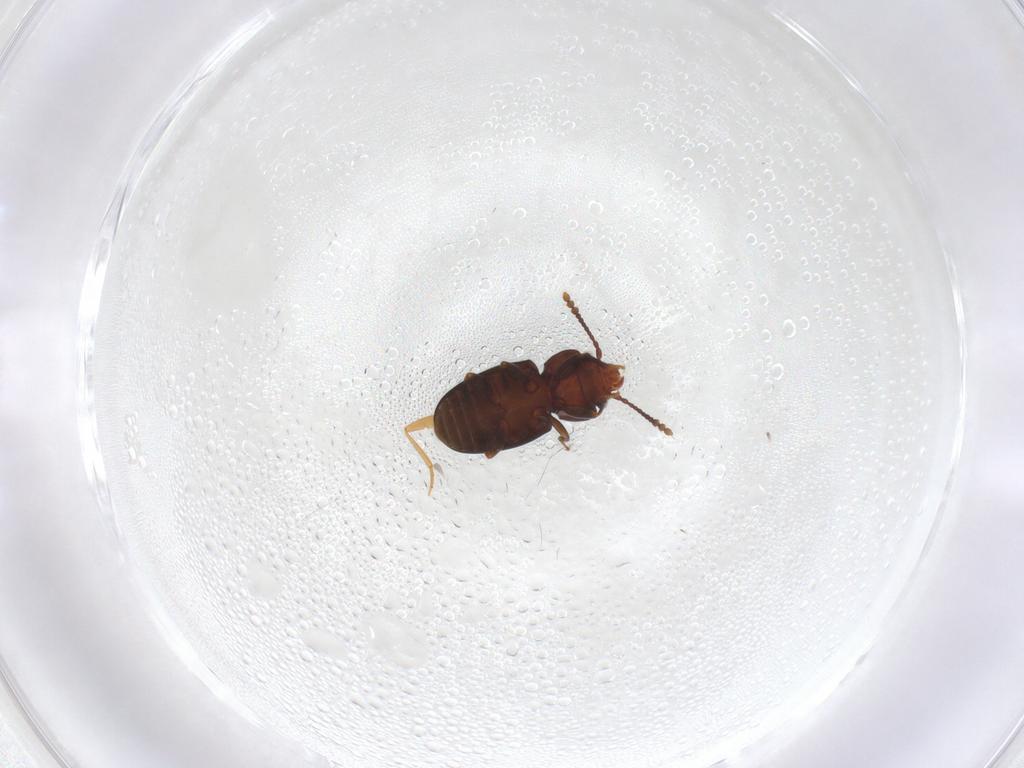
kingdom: Animalia
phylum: Arthropoda
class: Insecta
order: Coleoptera
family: Laemophloeidae
